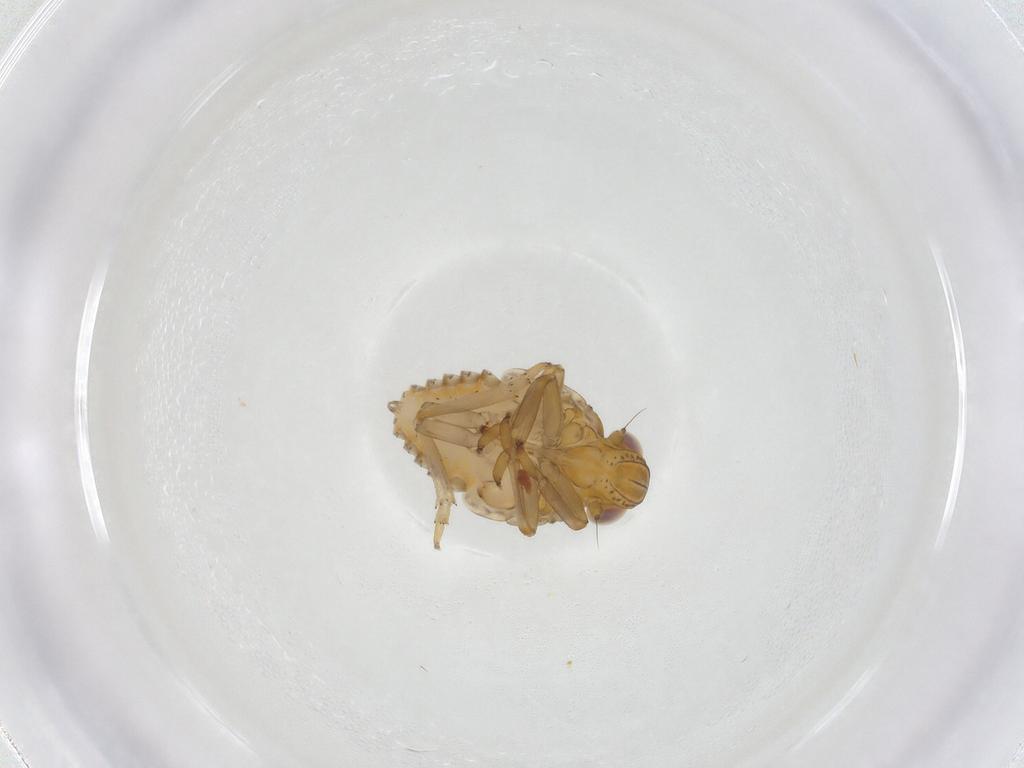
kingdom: Animalia
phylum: Arthropoda
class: Insecta
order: Hemiptera
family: Issidae
